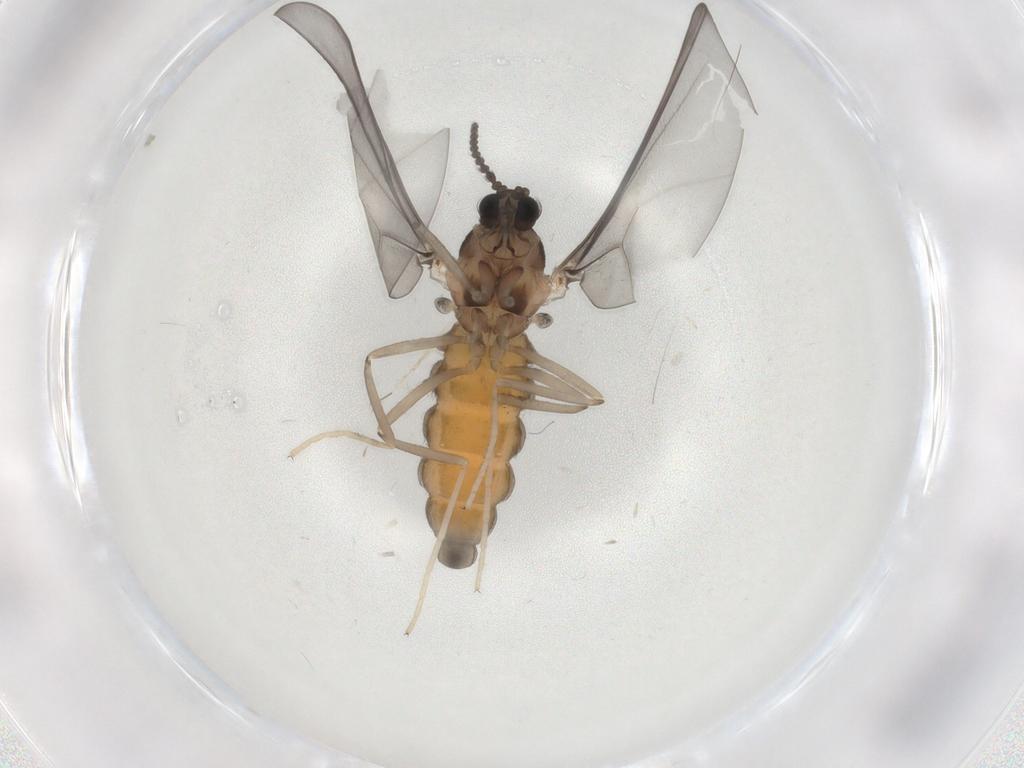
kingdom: Animalia
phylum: Arthropoda
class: Insecta
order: Diptera
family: Cecidomyiidae
